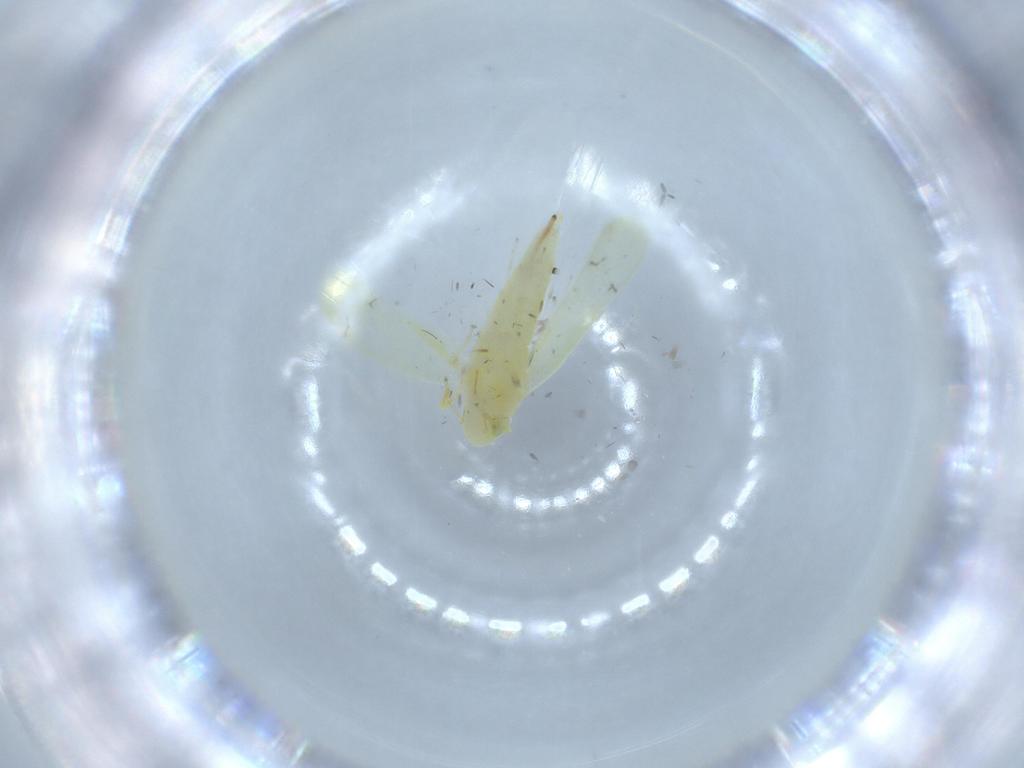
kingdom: Animalia
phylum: Arthropoda
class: Insecta
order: Hemiptera
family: Cicadellidae
